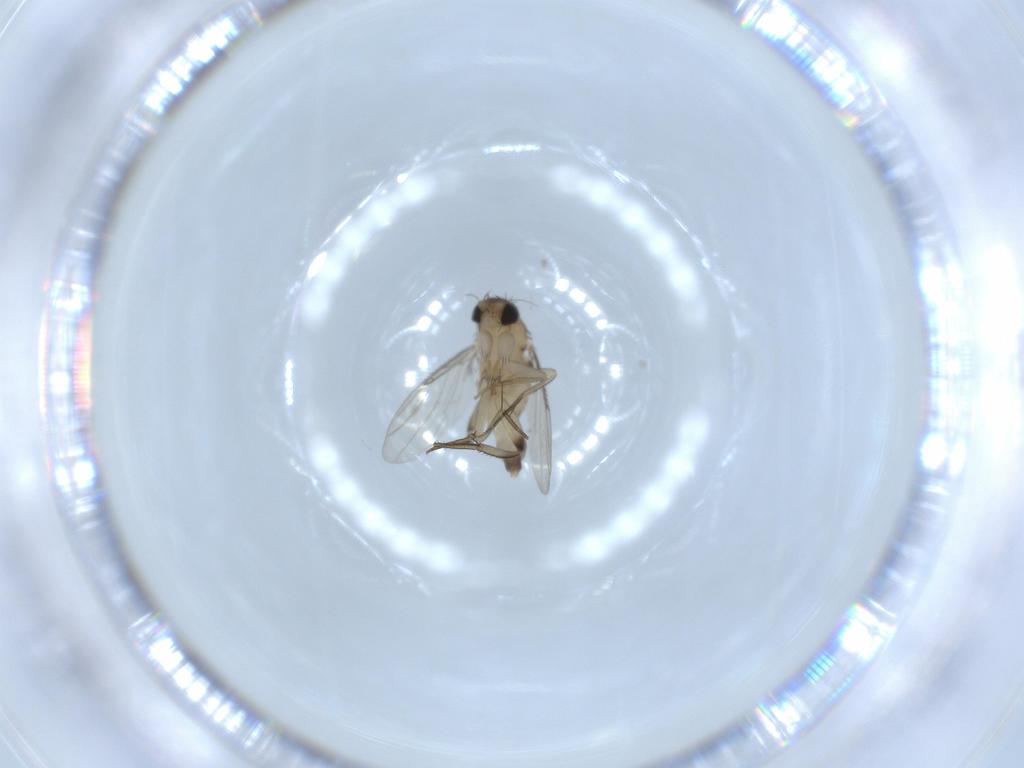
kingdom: Animalia
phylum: Arthropoda
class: Insecta
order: Diptera
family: Phoridae
